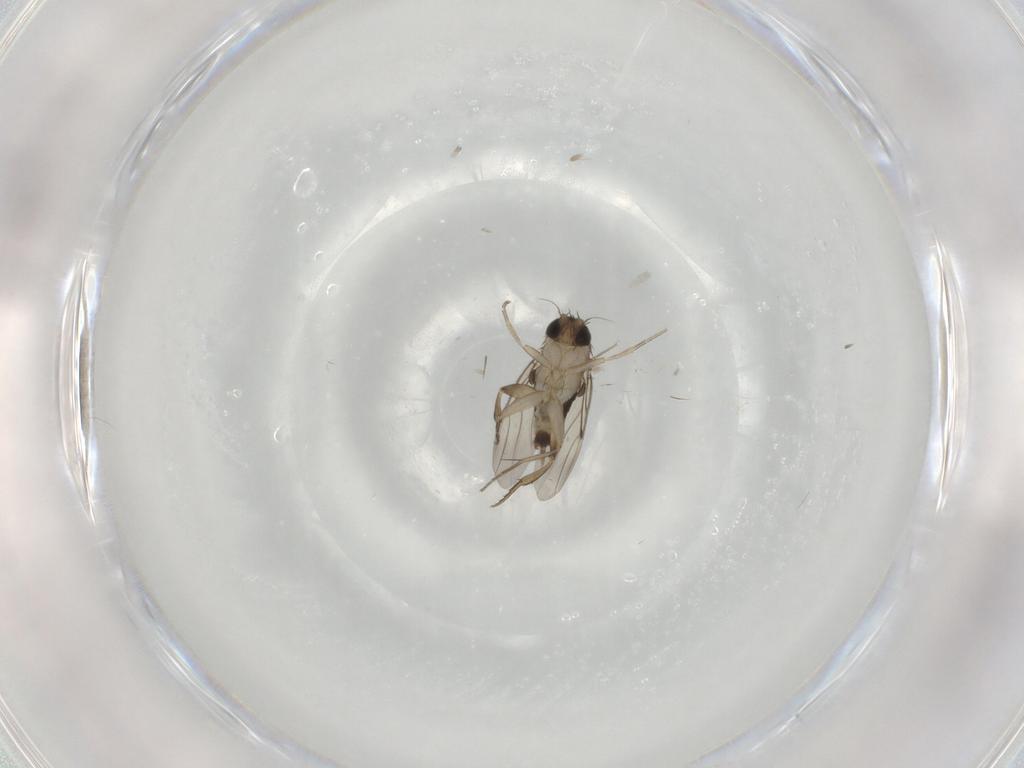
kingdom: Animalia
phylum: Arthropoda
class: Insecta
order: Diptera
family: Phoridae
